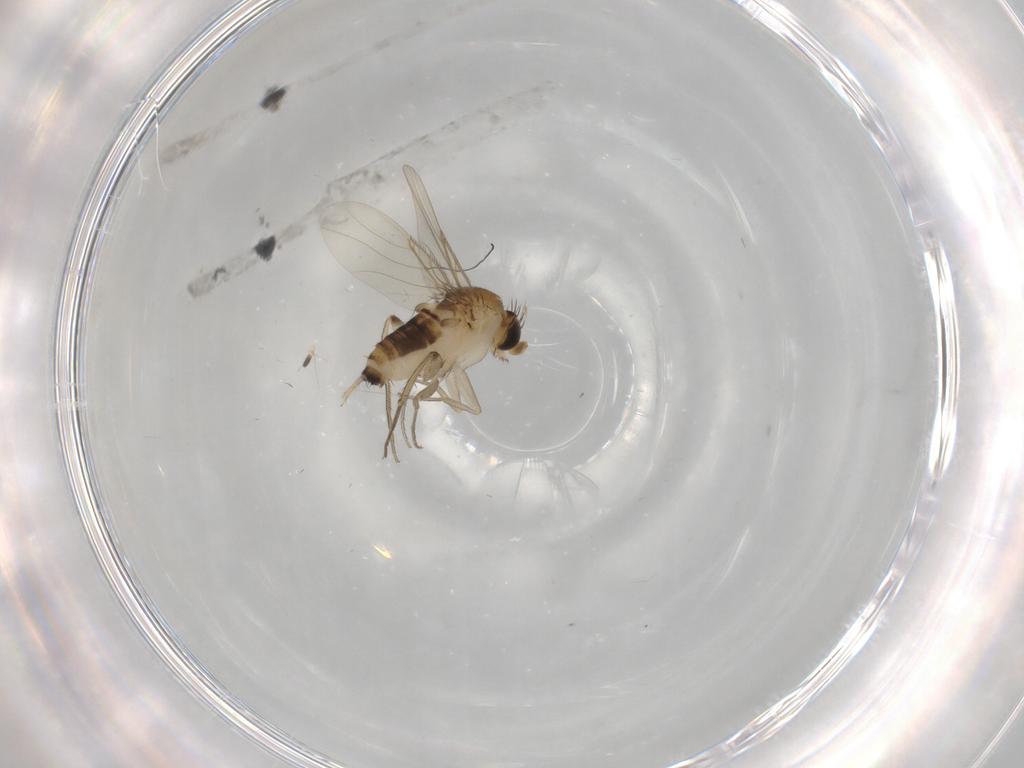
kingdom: Animalia
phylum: Arthropoda
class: Insecta
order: Diptera
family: Phoridae
